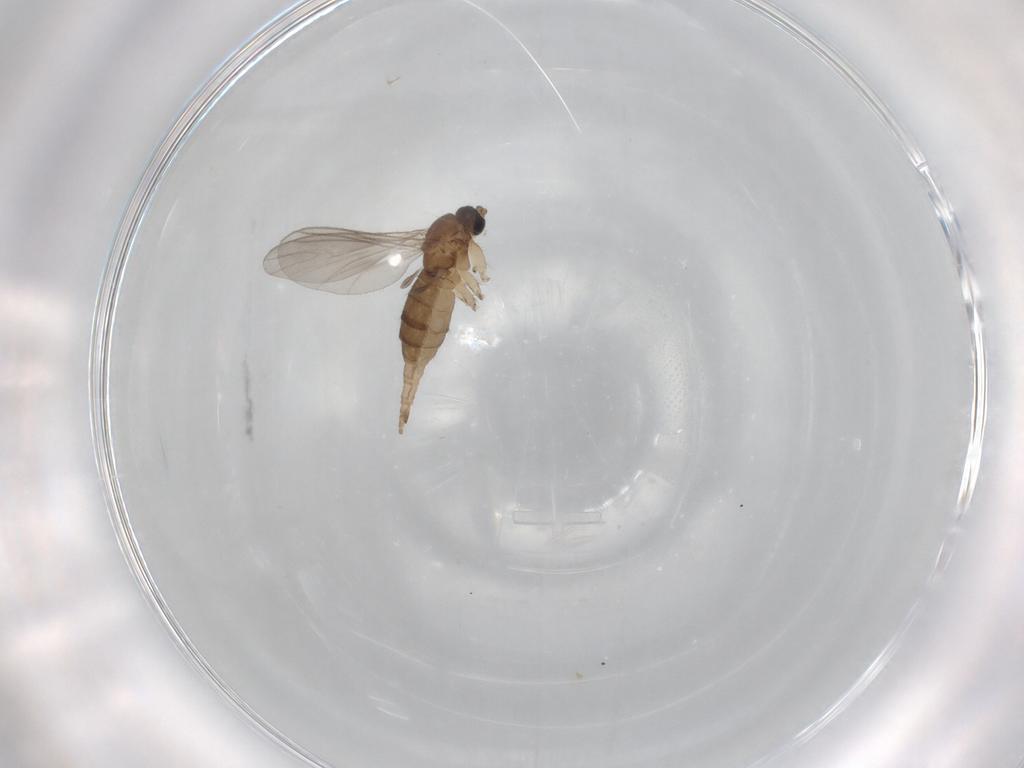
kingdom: Animalia
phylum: Arthropoda
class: Insecta
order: Diptera
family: Sciaridae
